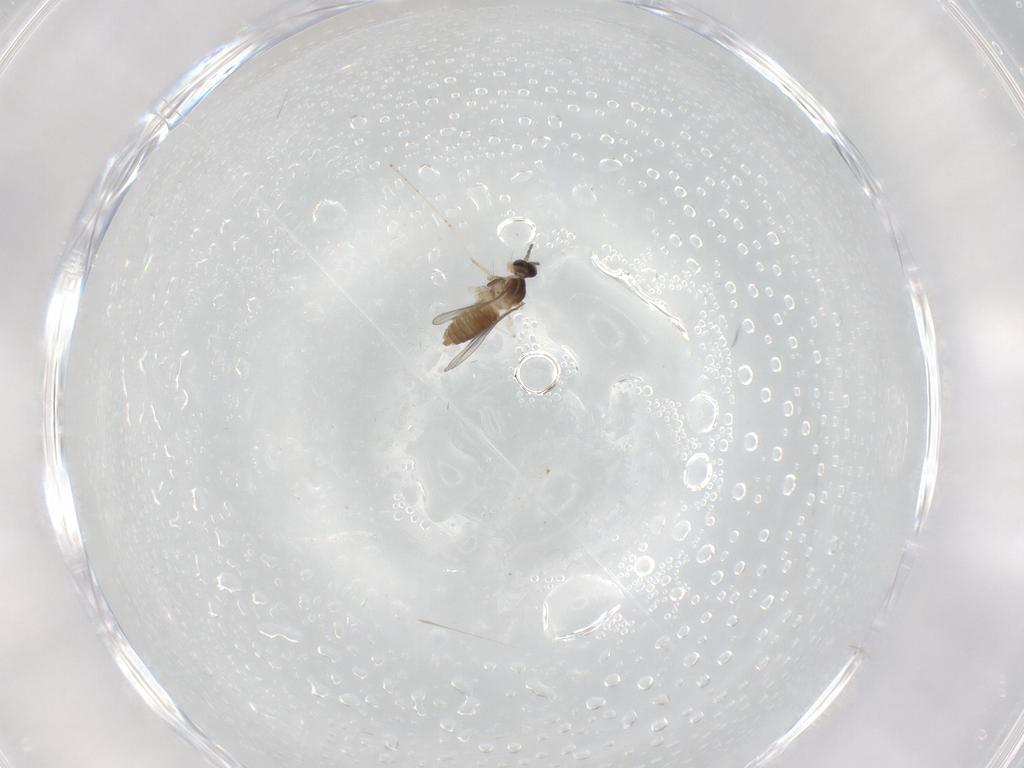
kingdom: Animalia
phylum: Arthropoda
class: Insecta
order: Diptera
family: Cecidomyiidae
